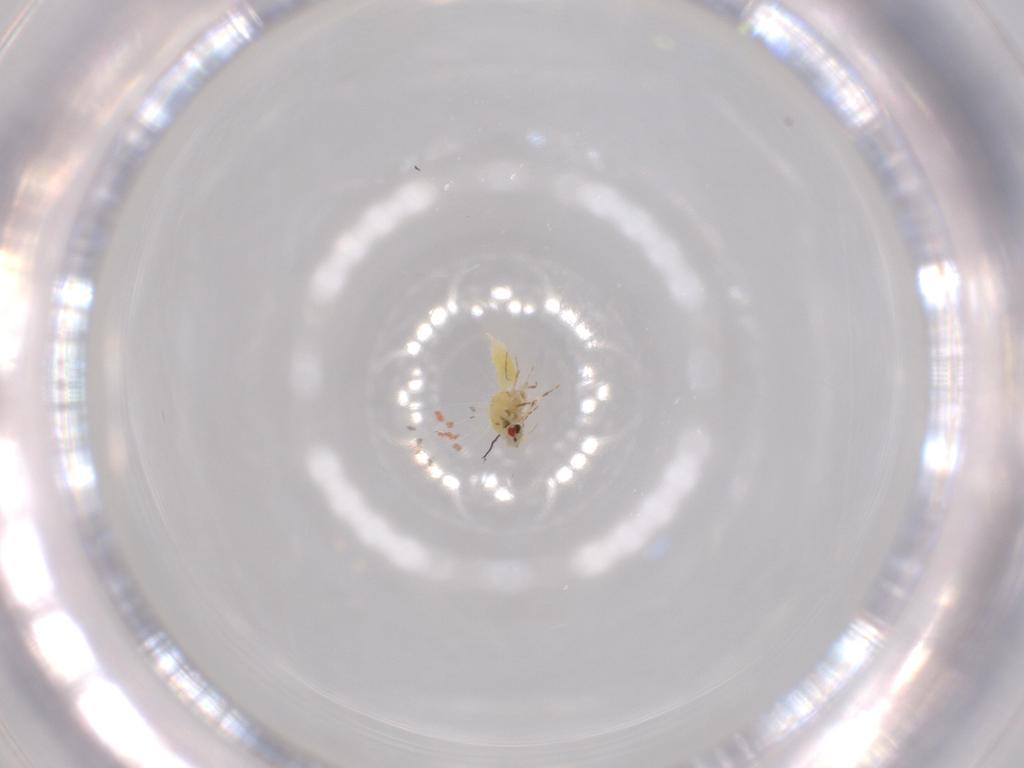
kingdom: Animalia
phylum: Arthropoda
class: Insecta
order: Hemiptera
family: Aleyrodidae
